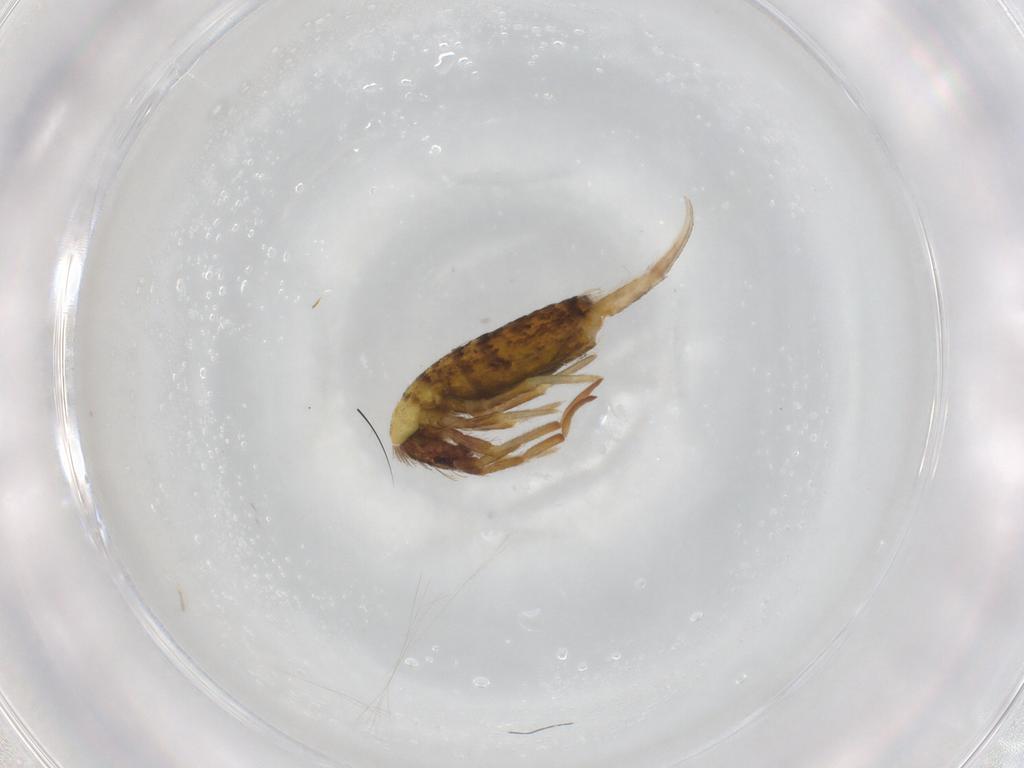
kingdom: Animalia
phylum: Arthropoda
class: Collembola
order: Entomobryomorpha
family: Entomobryidae
